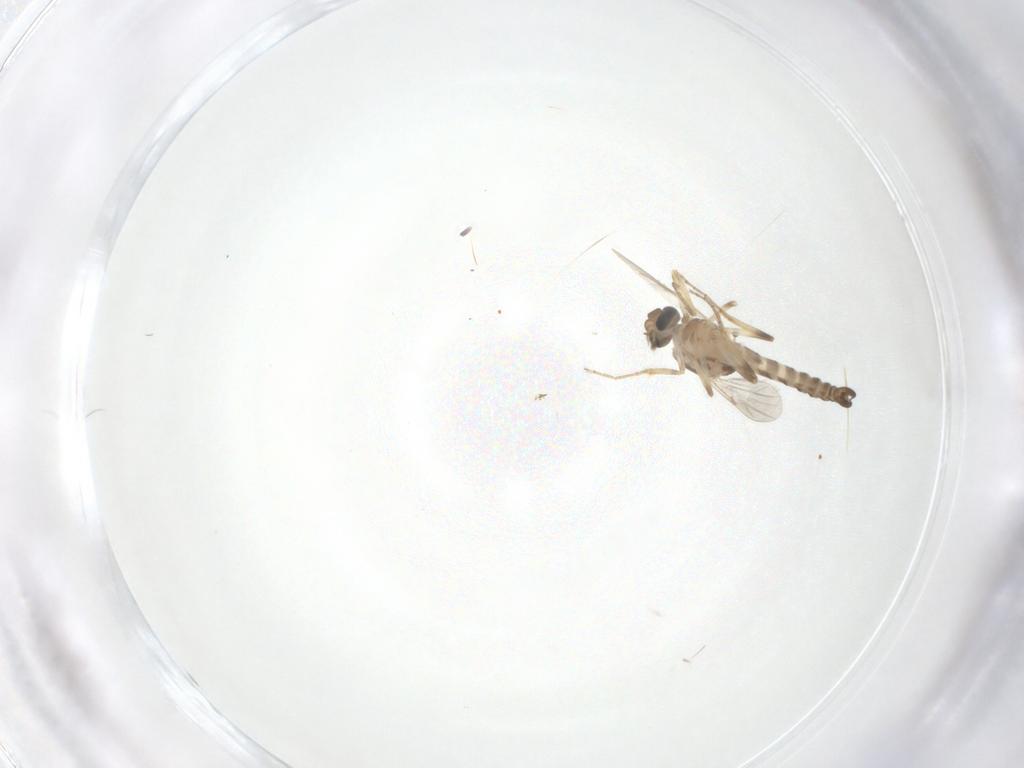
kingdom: Animalia
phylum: Arthropoda
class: Insecta
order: Diptera
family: Ceratopogonidae
